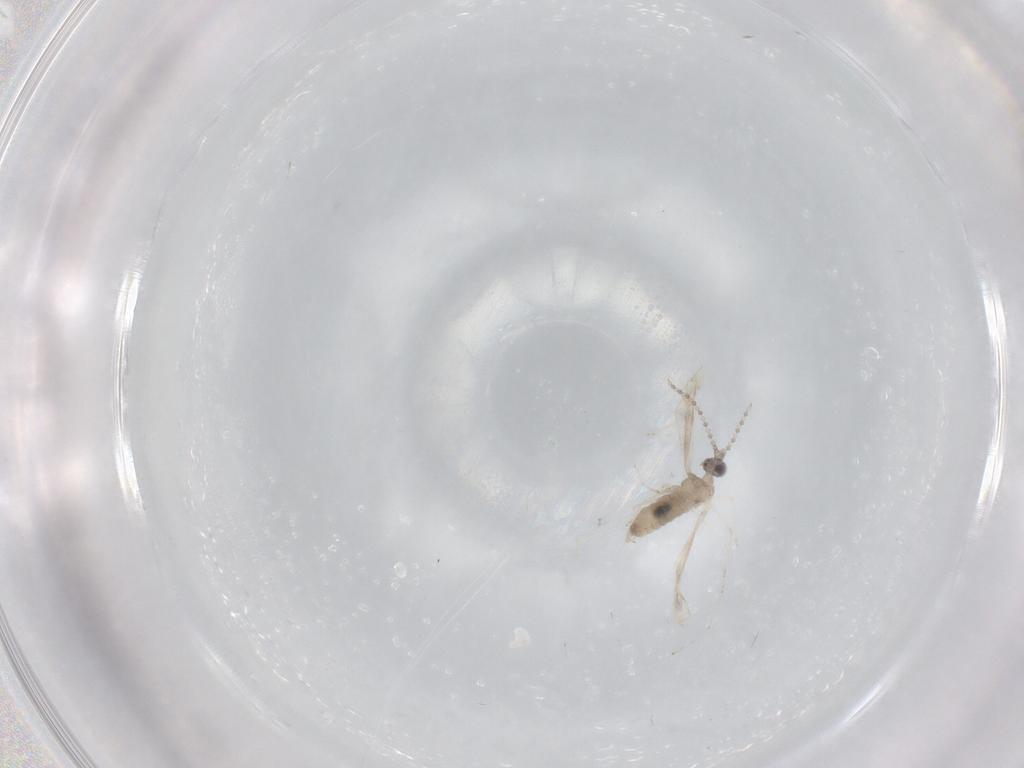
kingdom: Animalia
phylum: Arthropoda
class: Insecta
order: Diptera
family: Cecidomyiidae
